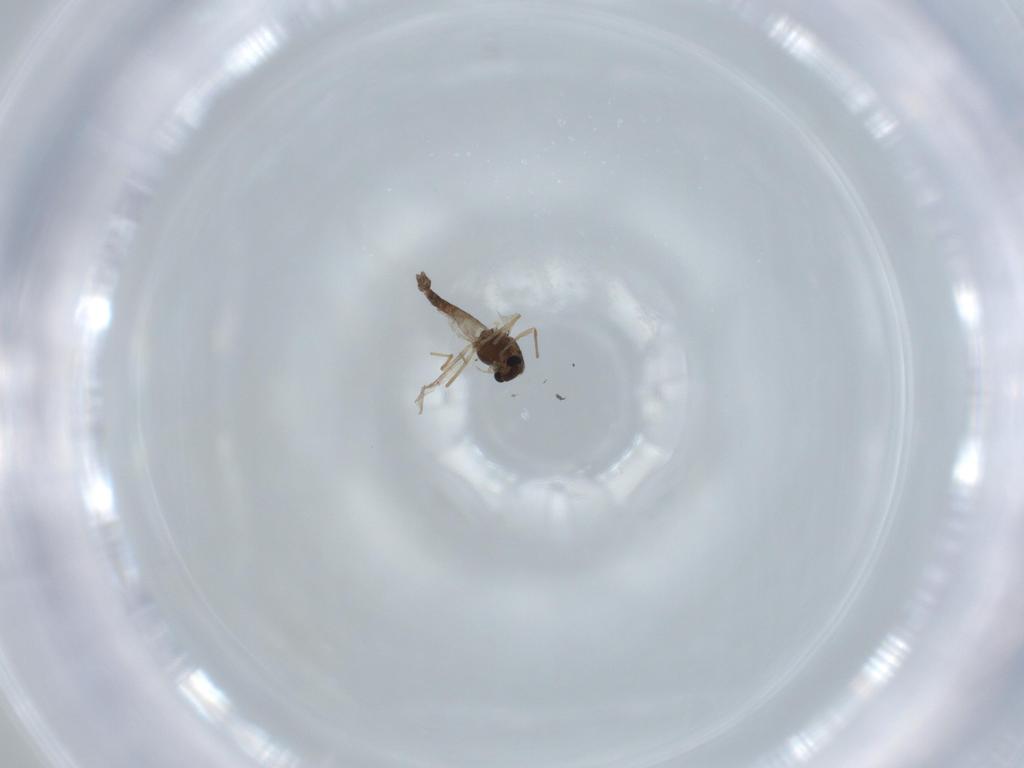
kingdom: Animalia
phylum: Arthropoda
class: Insecta
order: Diptera
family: Chironomidae
